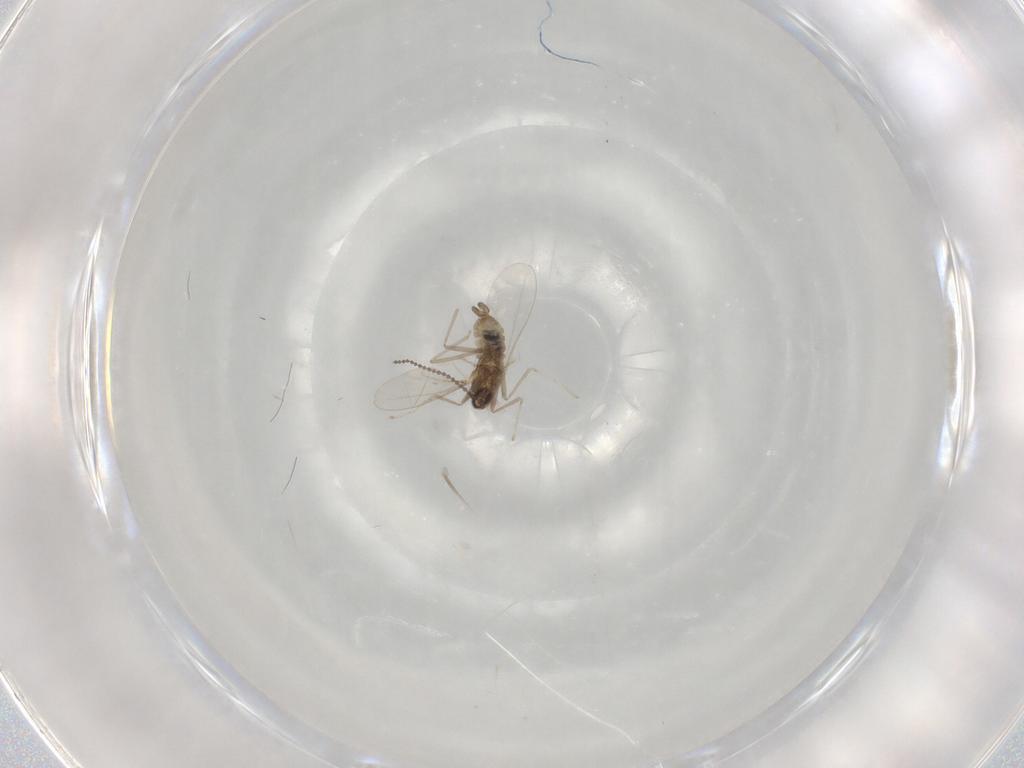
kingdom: Animalia
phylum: Arthropoda
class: Insecta
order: Diptera
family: Cecidomyiidae
